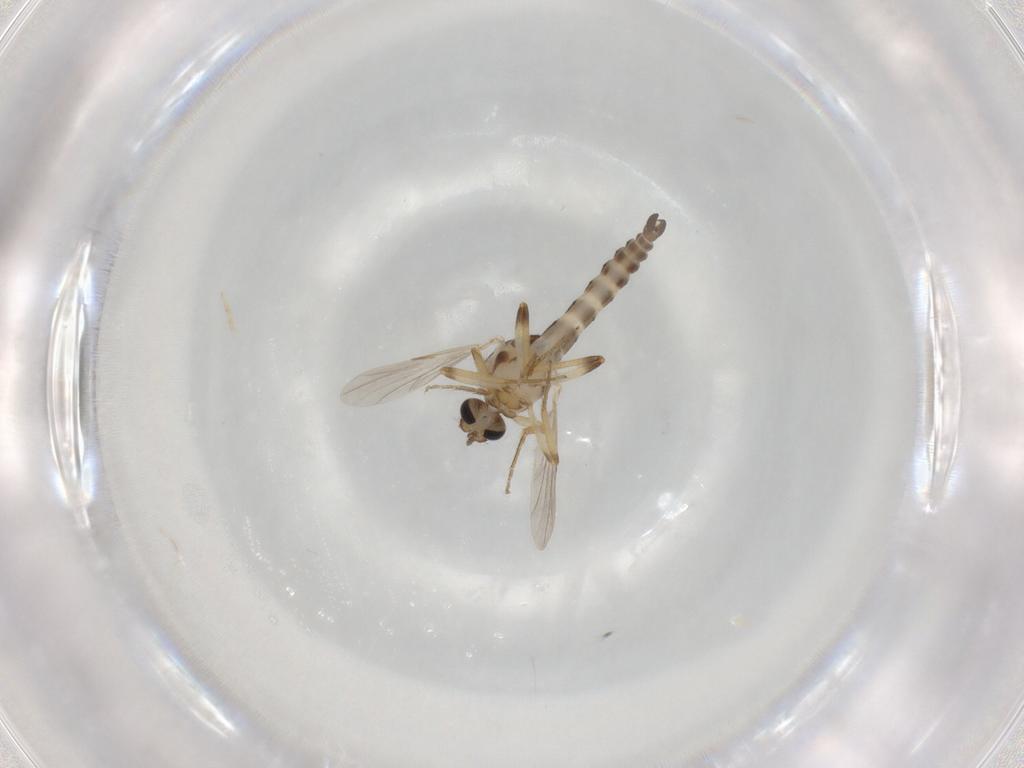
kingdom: Animalia
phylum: Arthropoda
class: Insecta
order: Diptera
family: Ceratopogonidae
